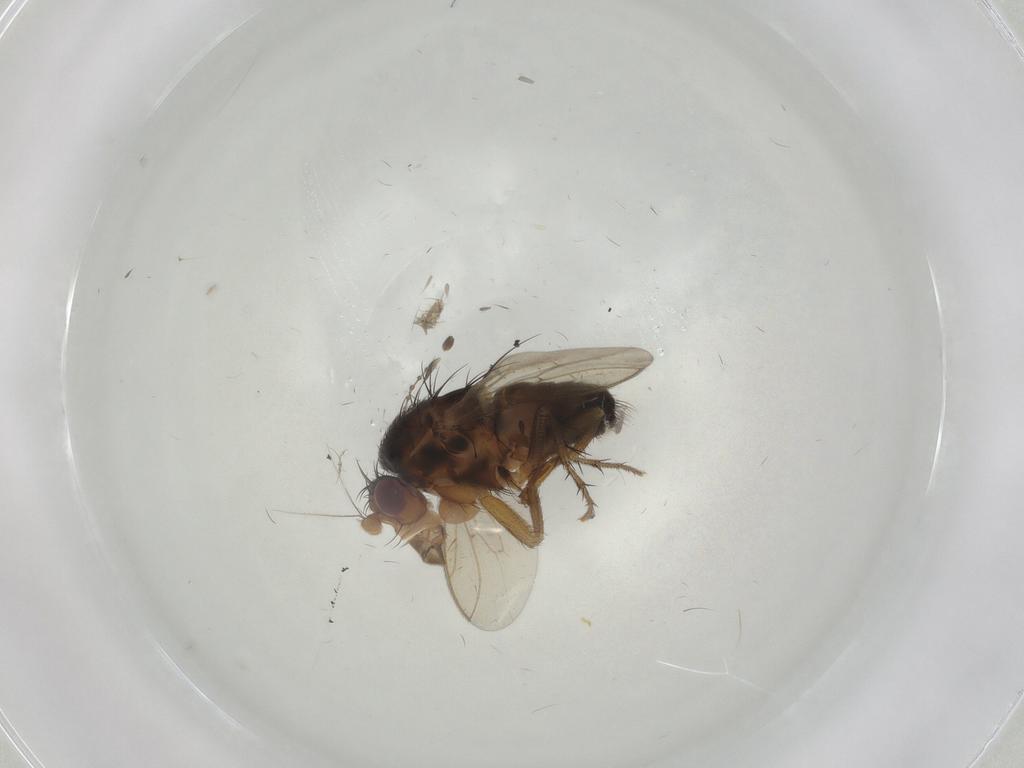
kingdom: Animalia
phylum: Arthropoda
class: Insecta
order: Diptera
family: Sphaeroceridae
